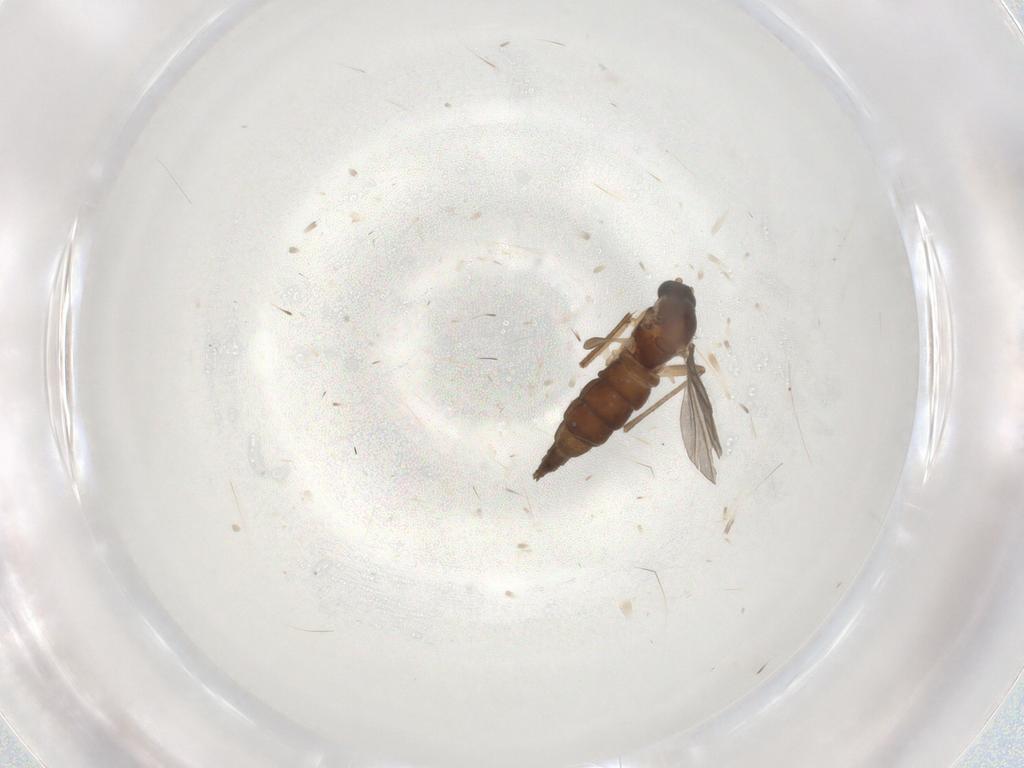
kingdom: Animalia
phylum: Arthropoda
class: Insecta
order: Diptera
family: Sciaridae
